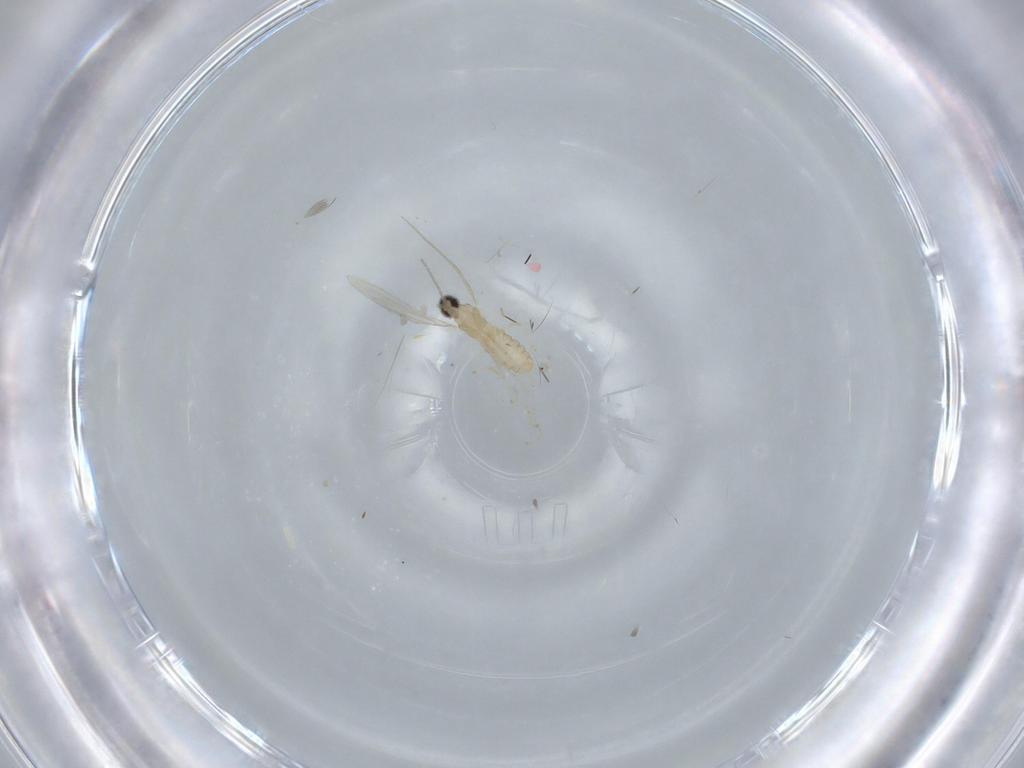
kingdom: Animalia
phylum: Arthropoda
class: Insecta
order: Diptera
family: Cecidomyiidae
